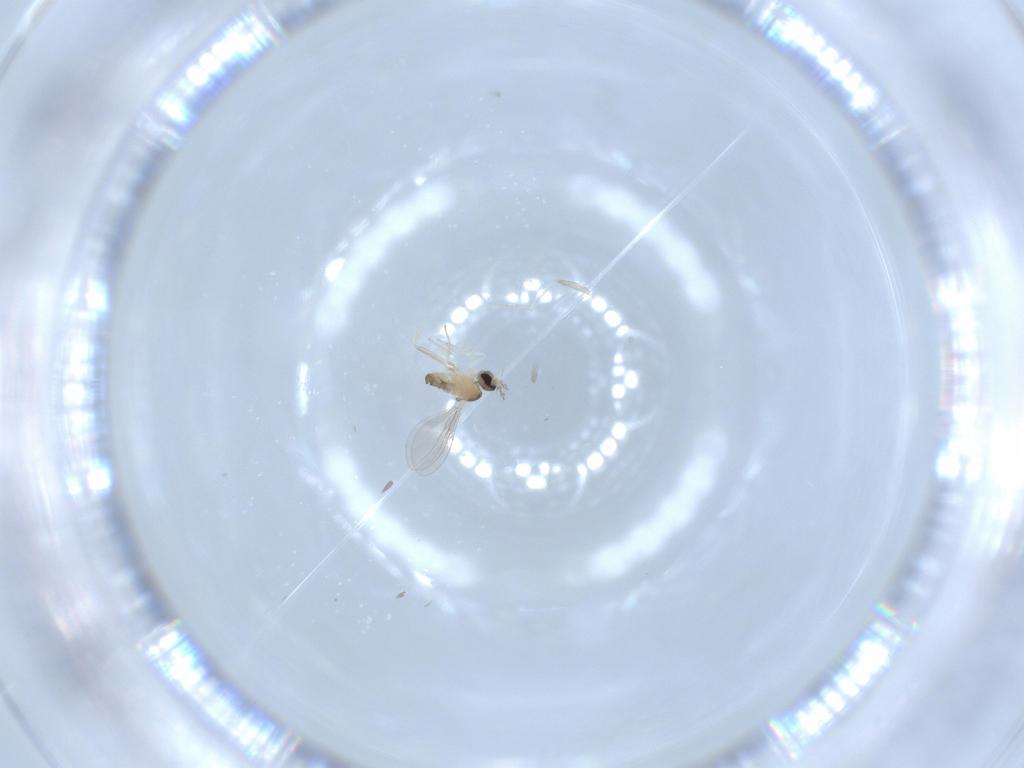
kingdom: Animalia
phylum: Arthropoda
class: Insecta
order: Diptera
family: Cecidomyiidae
